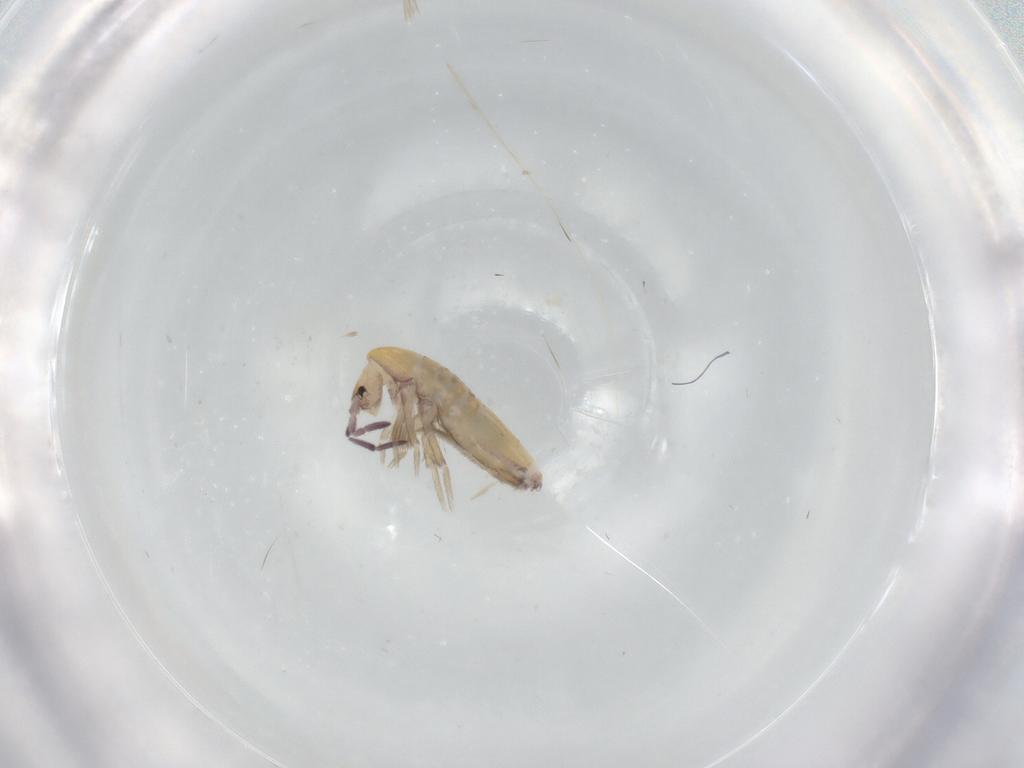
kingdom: Animalia
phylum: Arthropoda
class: Collembola
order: Entomobryomorpha
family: Entomobryidae
